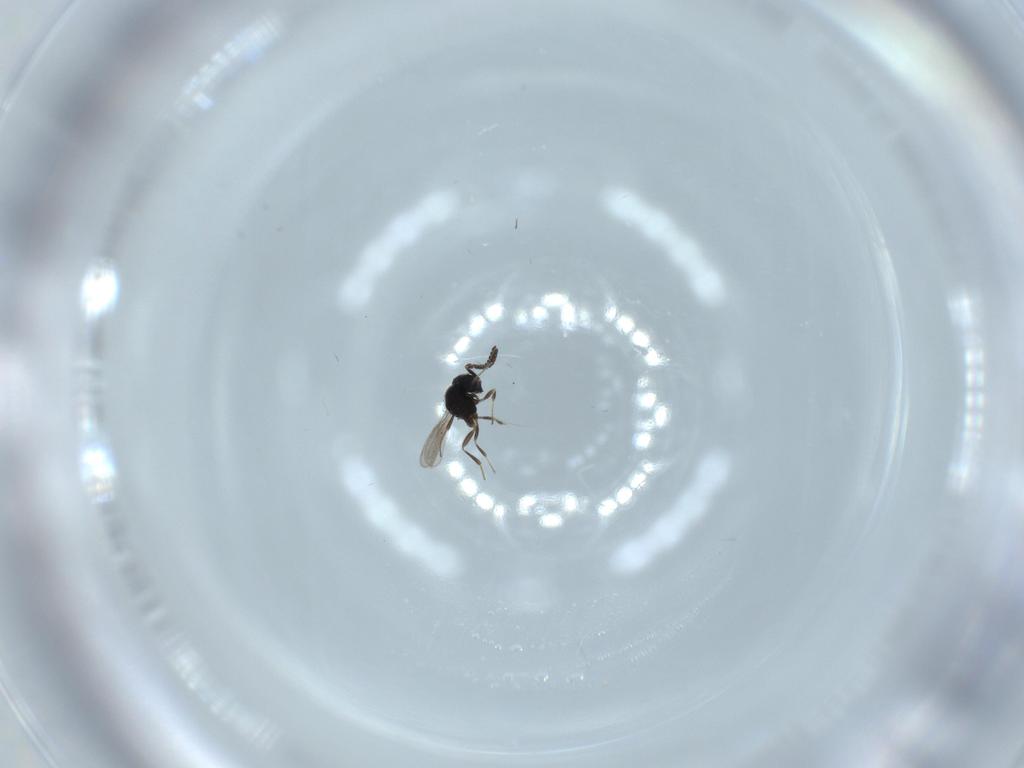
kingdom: Animalia
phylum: Arthropoda
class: Insecta
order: Hymenoptera
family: Scelionidae
